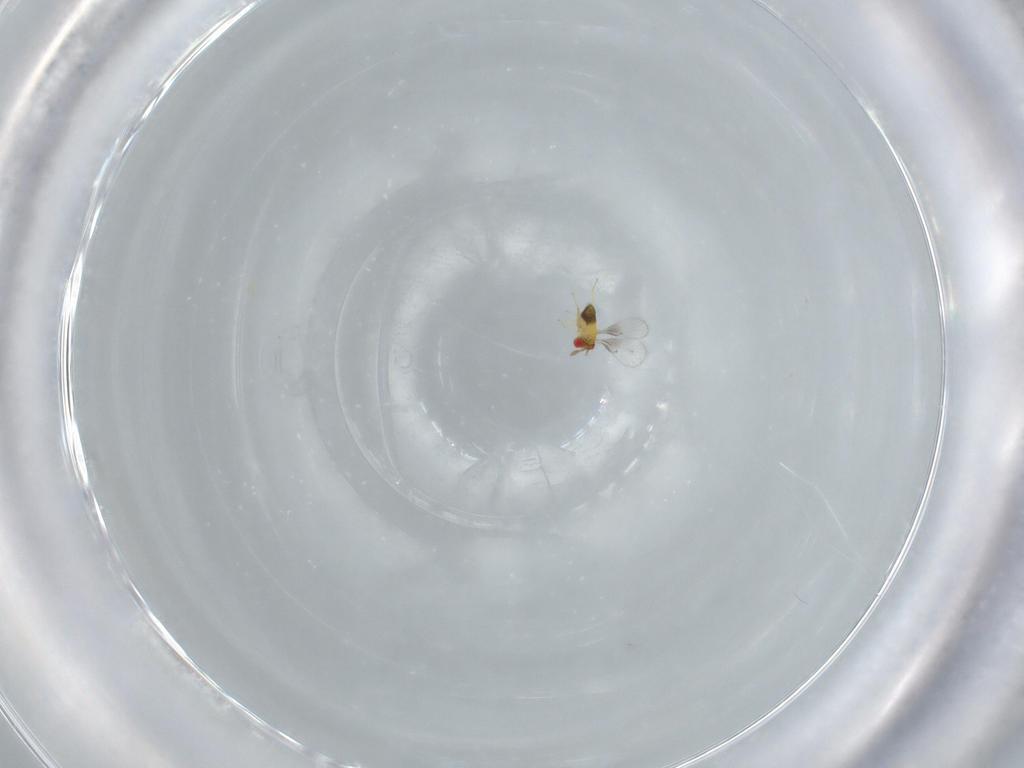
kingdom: Animalia
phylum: Arthropoda
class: Insecta
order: Hymenoptera
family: Trichogrammatidae
